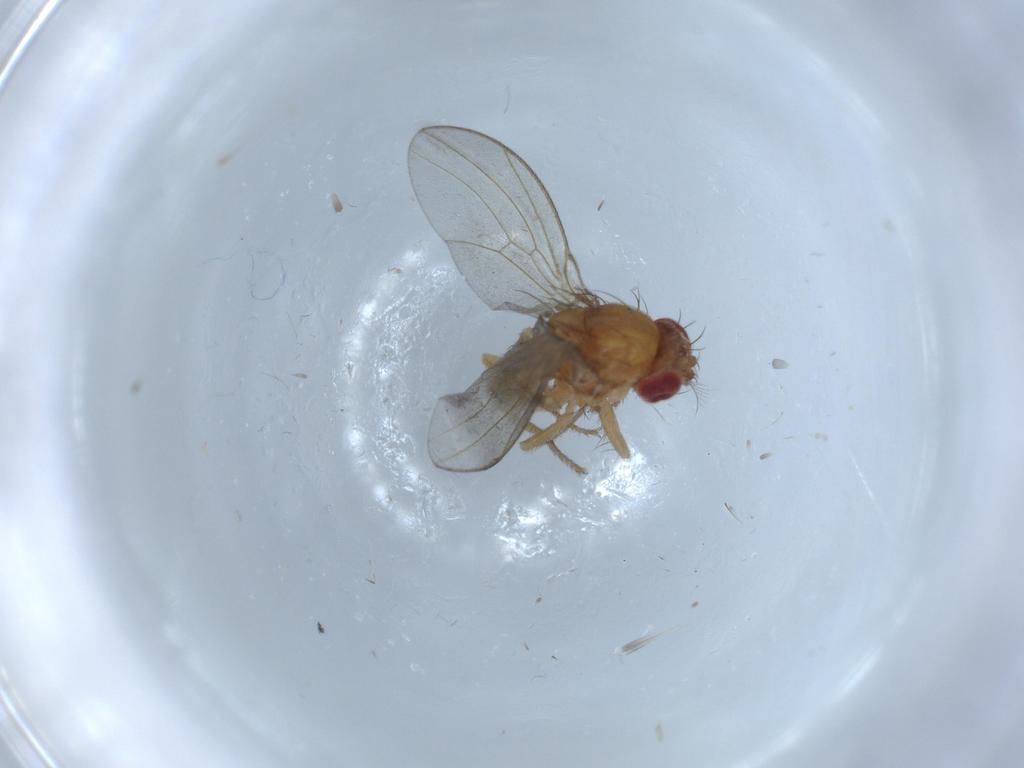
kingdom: Animalia
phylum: Arthropoda
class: Insecta
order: Diptera
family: Drosophilidae
